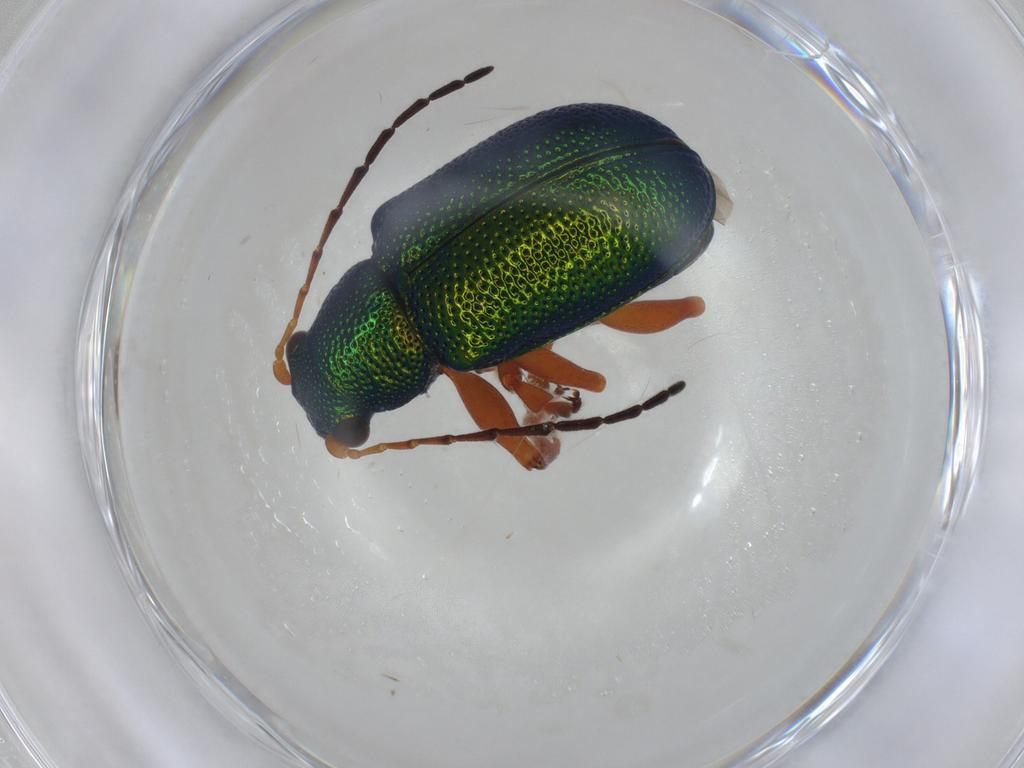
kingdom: Animalia
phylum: Arthropoda
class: Insecta
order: Coleoptera
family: Chrysomelidae
